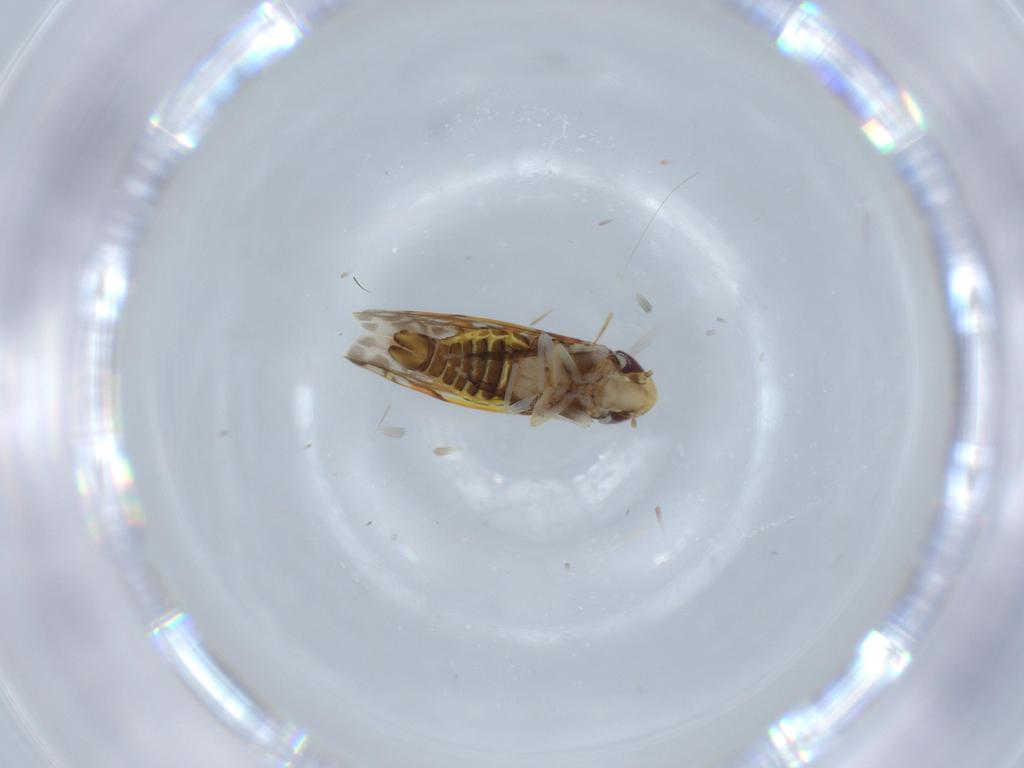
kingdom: Animalia
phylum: Arthropoda
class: Insecta
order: Hemiptera
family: Cicadellidae
